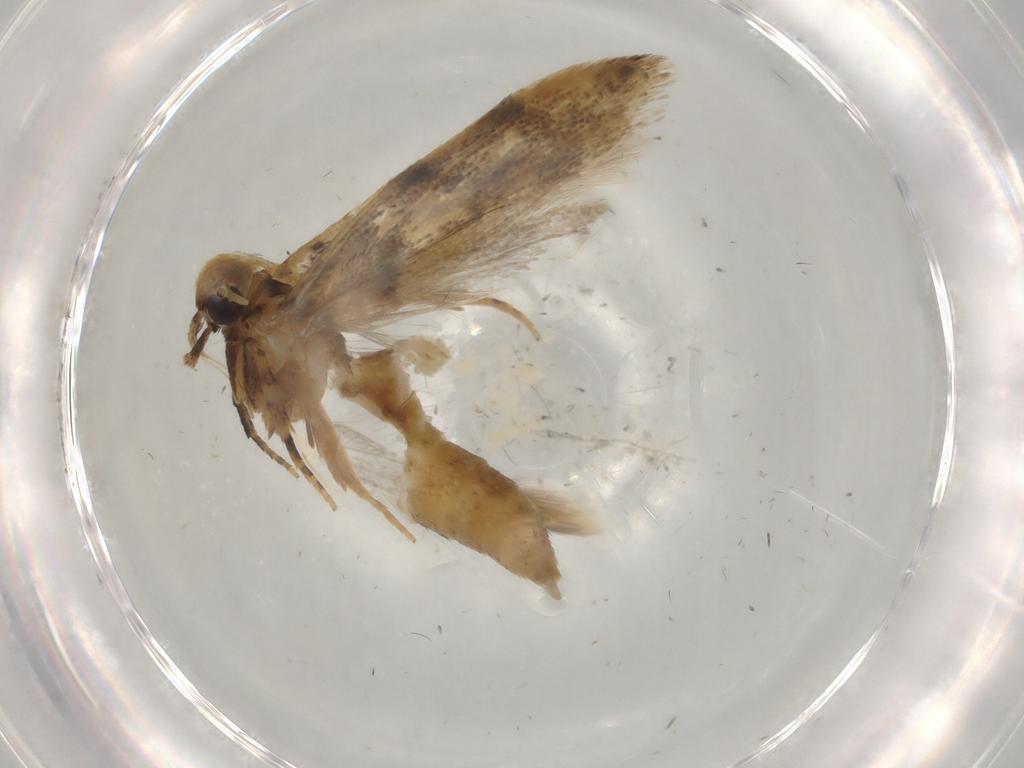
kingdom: Animalia
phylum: Arthropoda
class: Insecta
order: Lepidoptera
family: Gelechiidae
